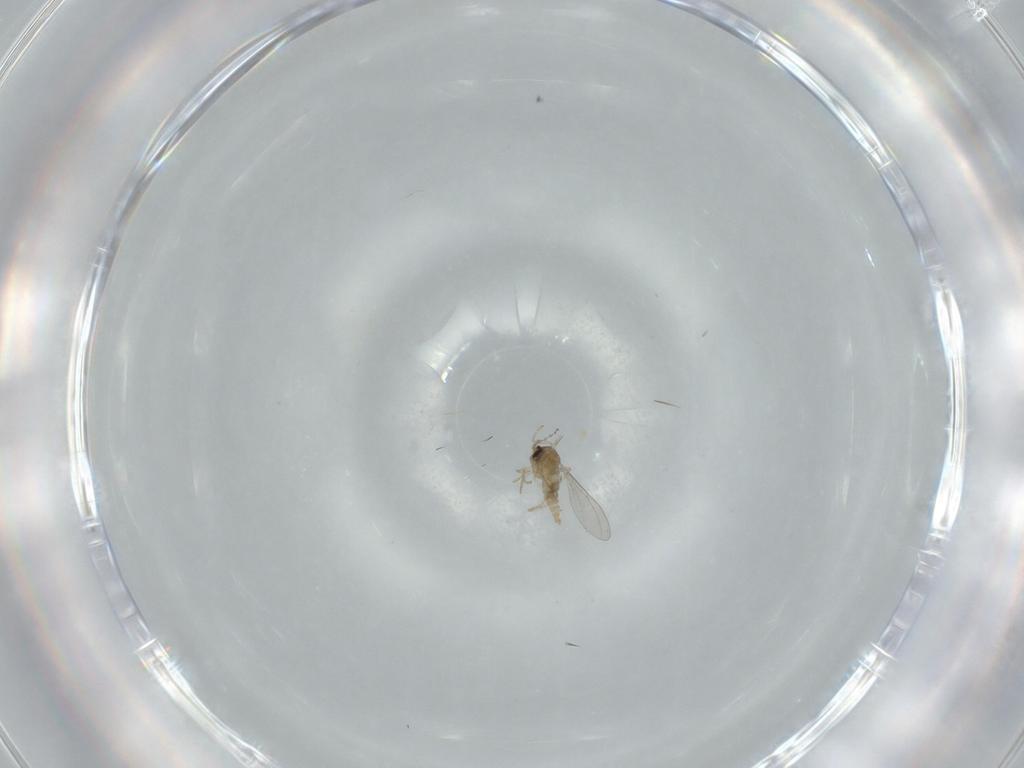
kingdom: Animalia
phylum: Arthropoda
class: Insecta
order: Diptera
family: Cecidomyiidae
